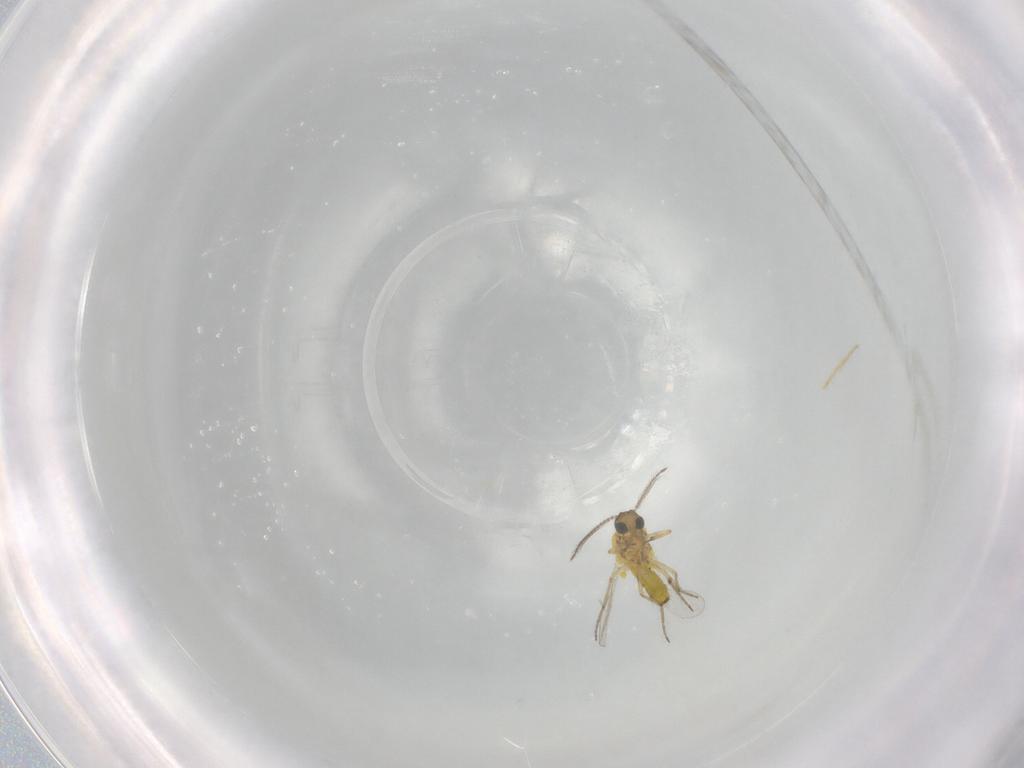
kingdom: Animalia
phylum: Arthropoda
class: Insecta
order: Diptera
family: Ceratopogonidae
